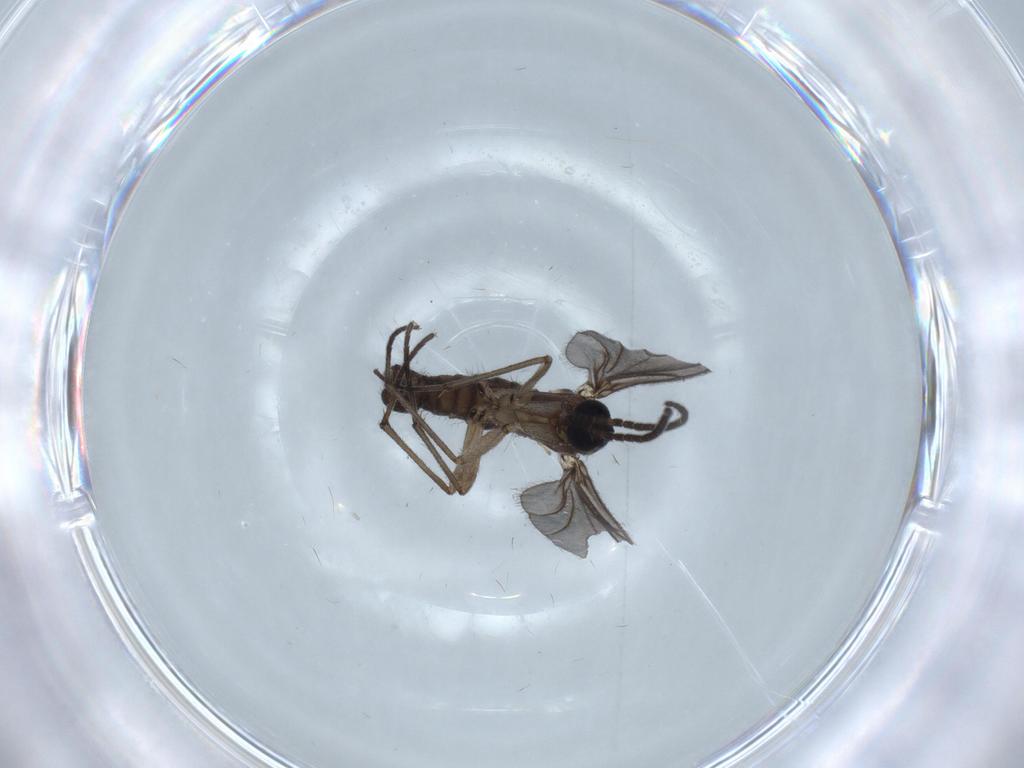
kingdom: Animalia
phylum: Arthropoda
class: Insecta
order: Diptera
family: Sciaridae
